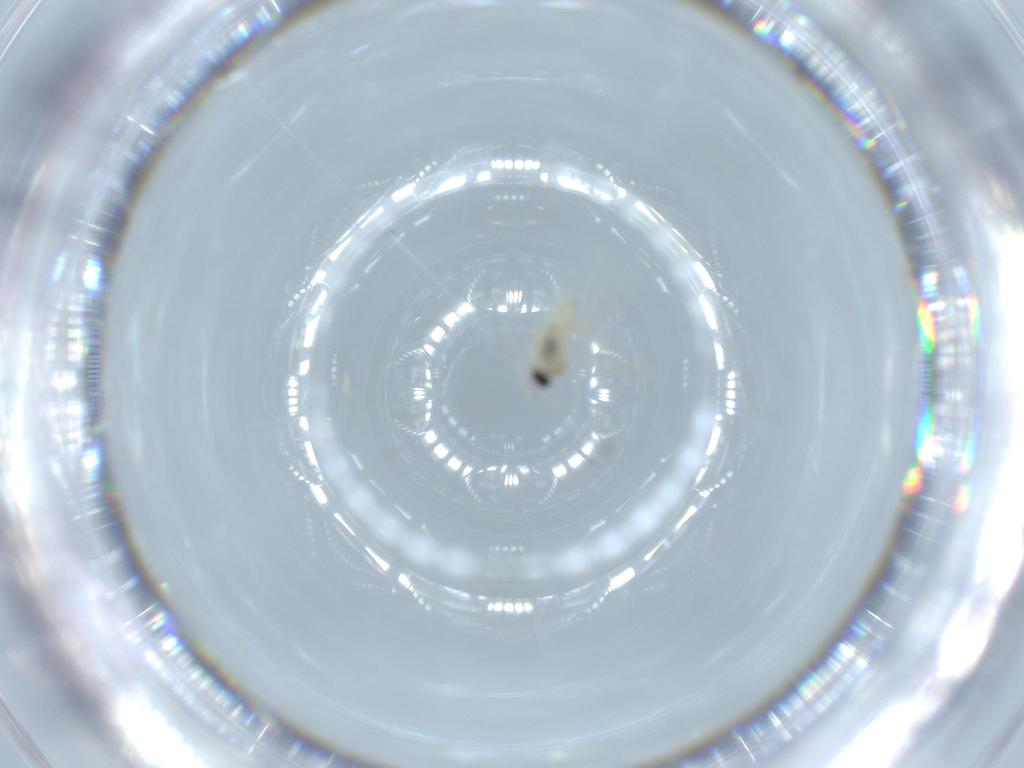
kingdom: Animalia
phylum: Arthropoda
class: Insecta
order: Diptera
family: Cecidomyiidae
